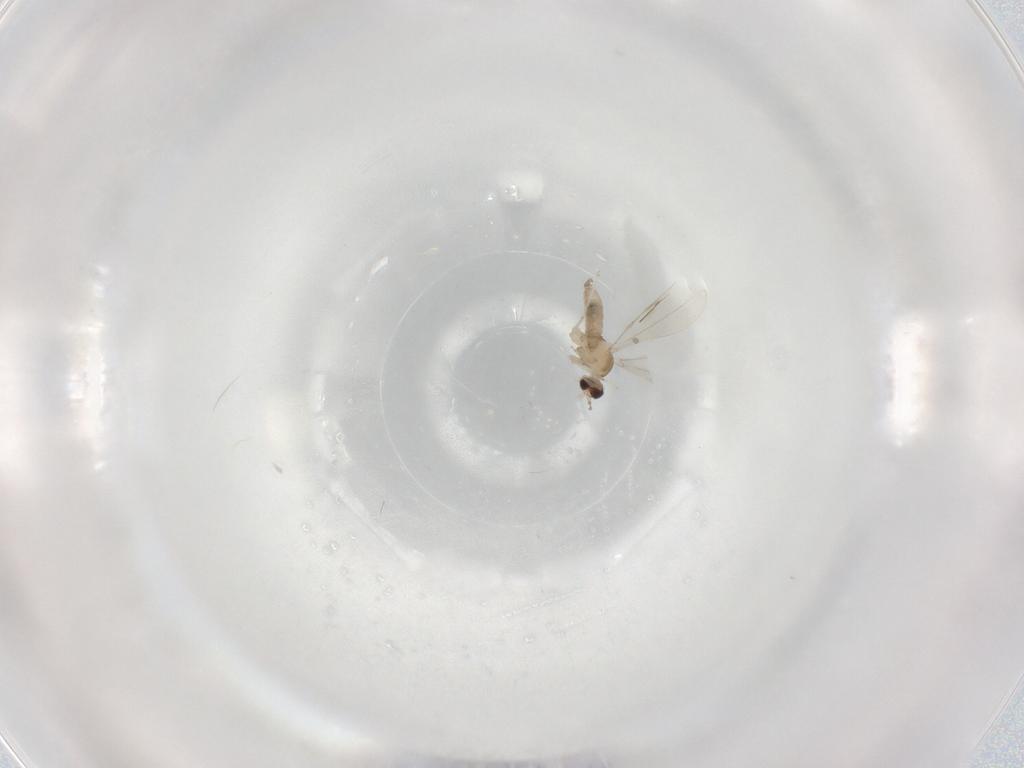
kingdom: Animalia
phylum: Arthropoda
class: Insecta
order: Diptera
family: Cecidomyiidae
